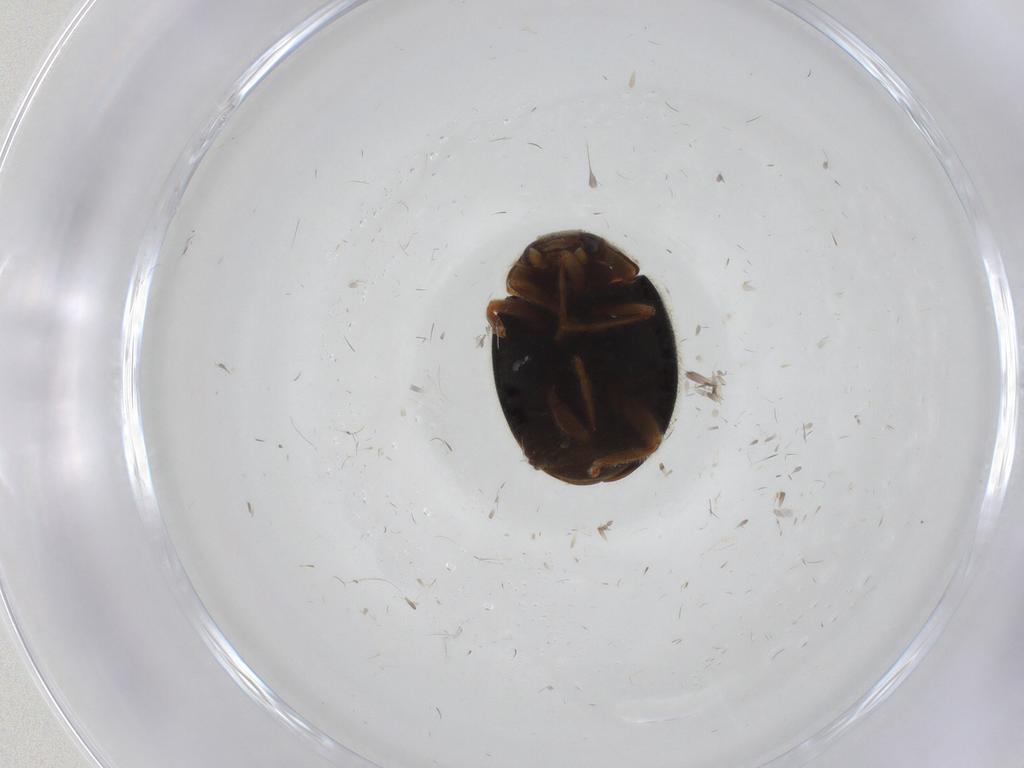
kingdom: Animalia
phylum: Arthropoda
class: Insecta
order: Coleoptera
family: Coccinellidae
